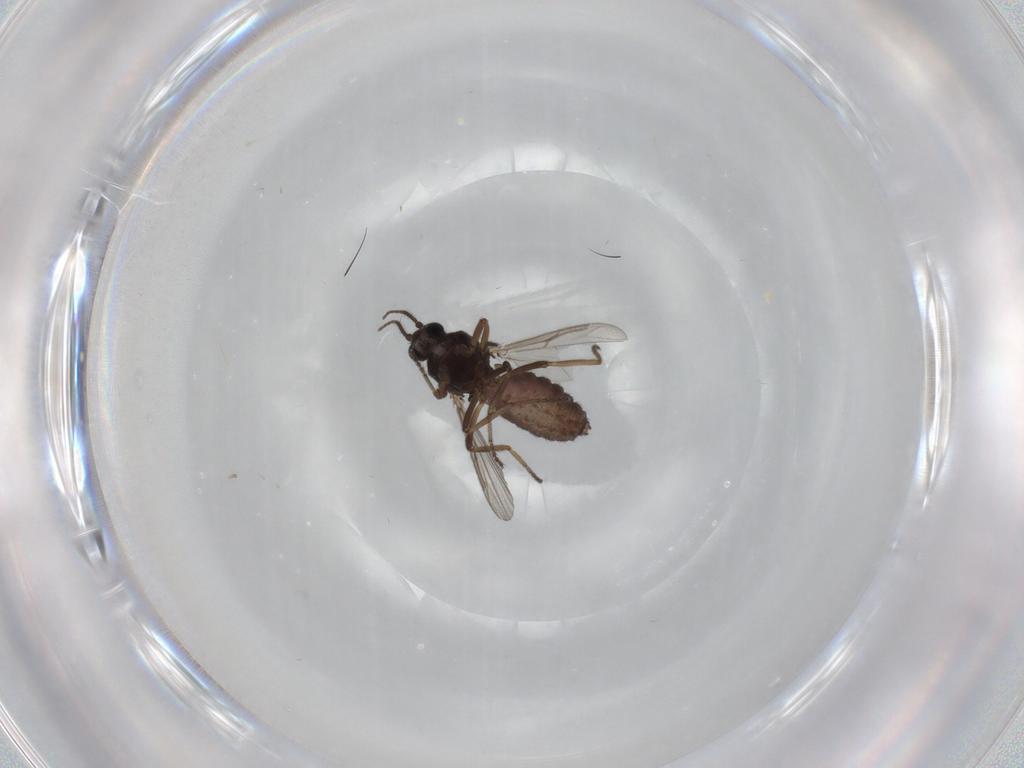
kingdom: Animalia
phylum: Arthropoda
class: Insecta
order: Diptera
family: Ceratopogonidae
